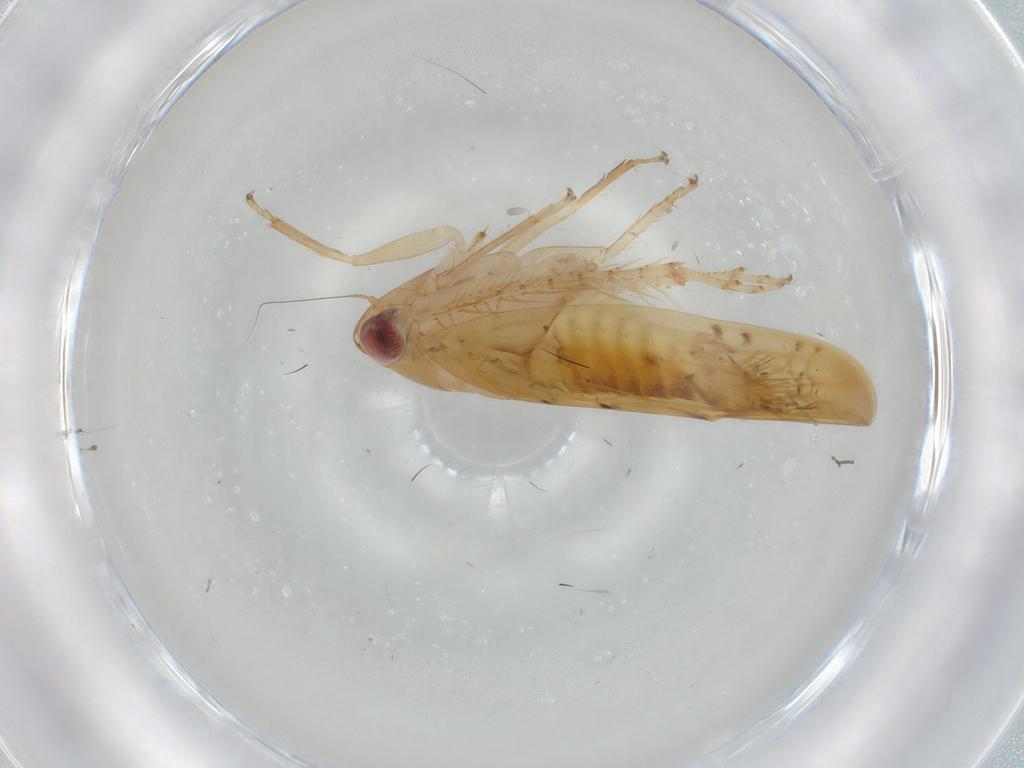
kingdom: Animalia
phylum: Arthropoda
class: Insecta
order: Hemiptera
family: Cicadellidae
